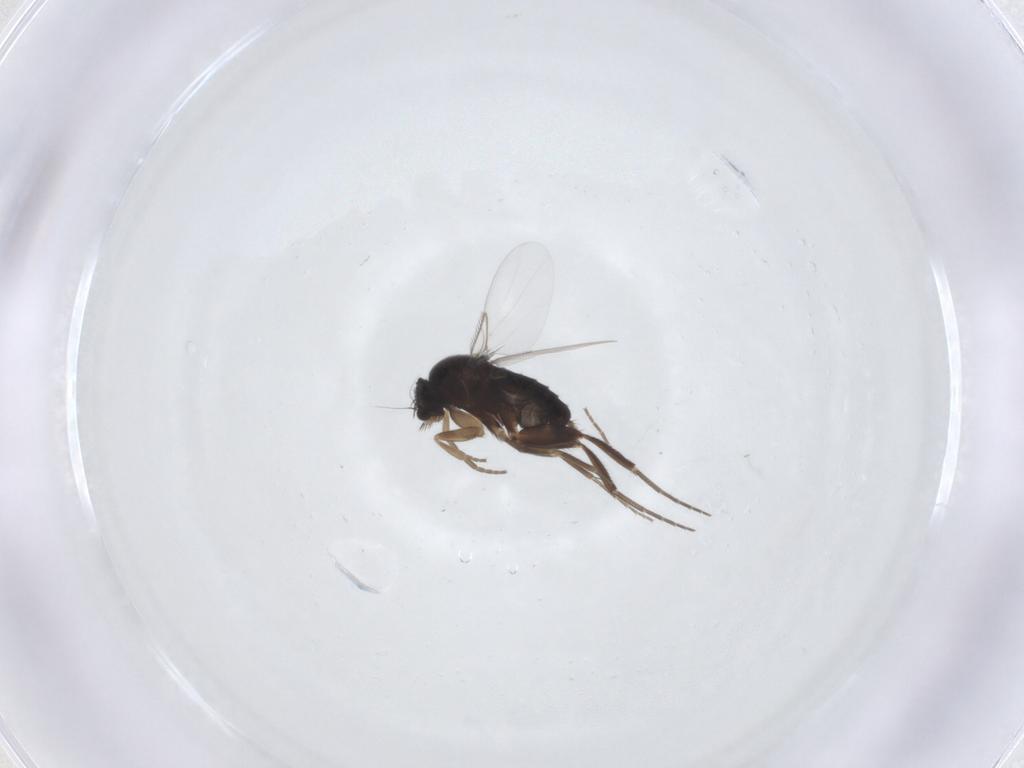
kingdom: Animalia
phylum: Arthropoda
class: Insecta
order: Diptera
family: Phoridae
